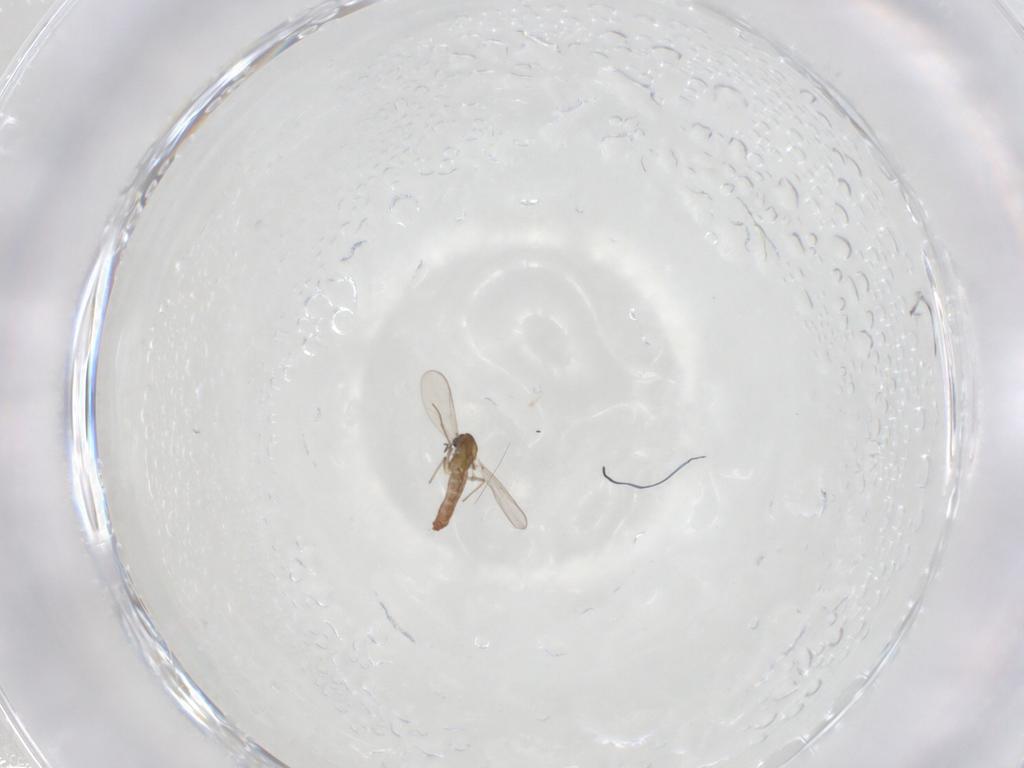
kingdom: Animalia
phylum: Arthropoda
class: Insecta
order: Diptera
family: Chironomidae
